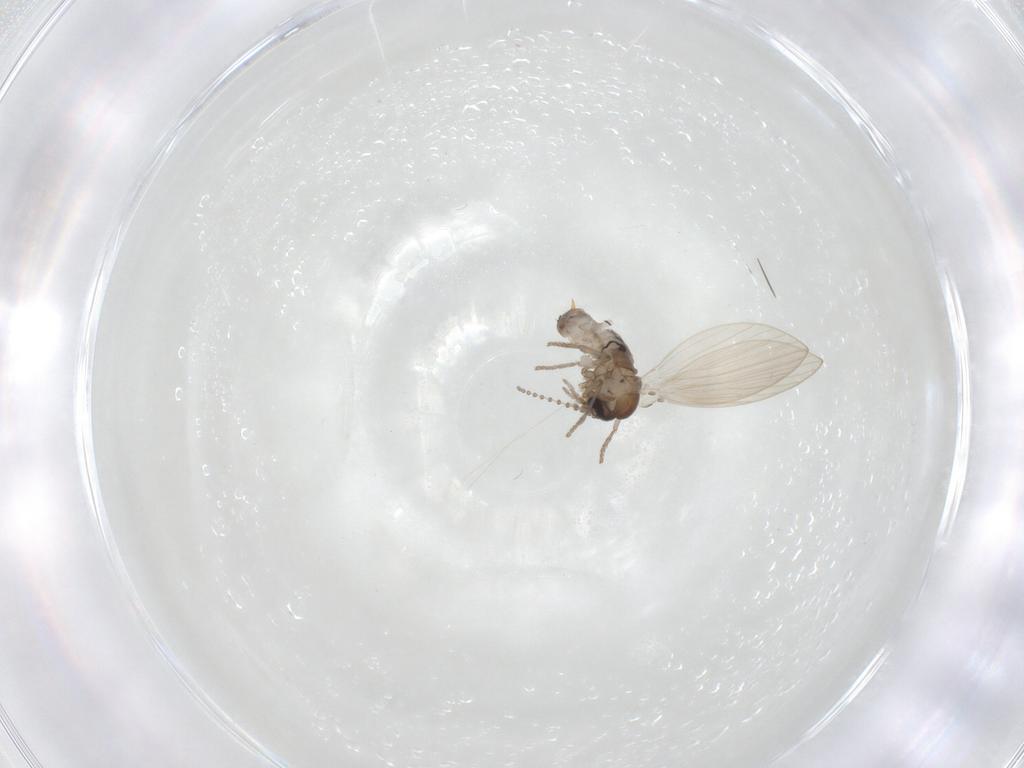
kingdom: Animalia
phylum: Arthropoda
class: Insecta
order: Diptera
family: Psychodidae
